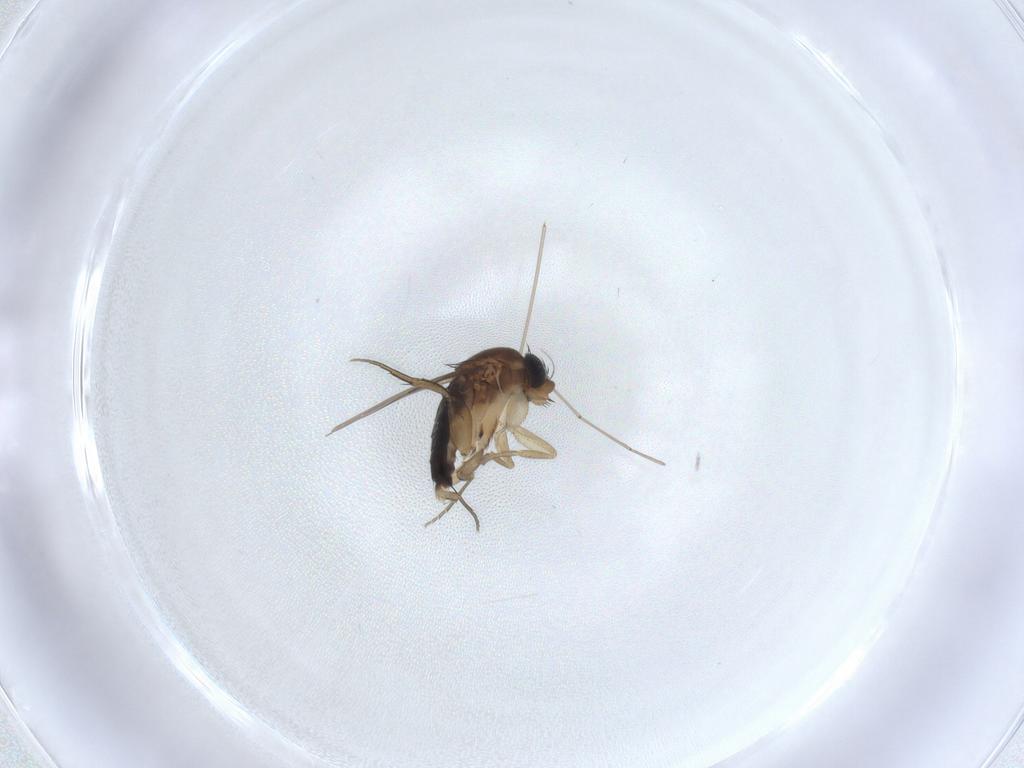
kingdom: Animalia
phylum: Arthropoda
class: Insecta
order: Diptera
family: Phoridae
